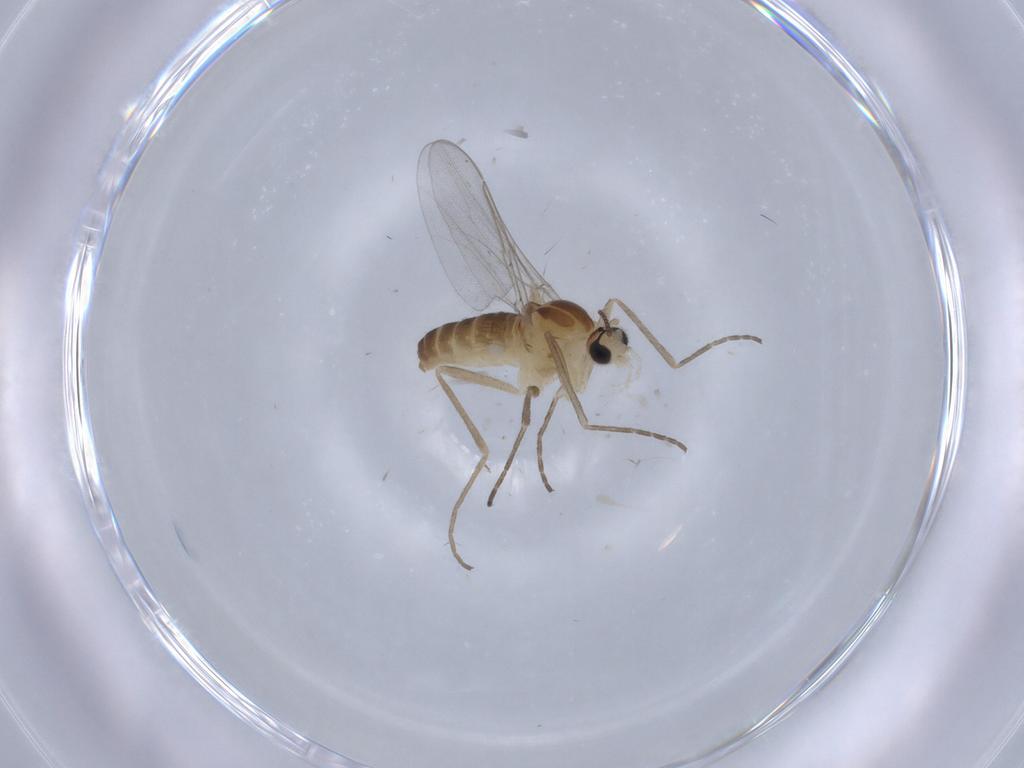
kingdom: Animalia
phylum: Arthropoda
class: Insecta
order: Diptera
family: Cecidomyiidae
